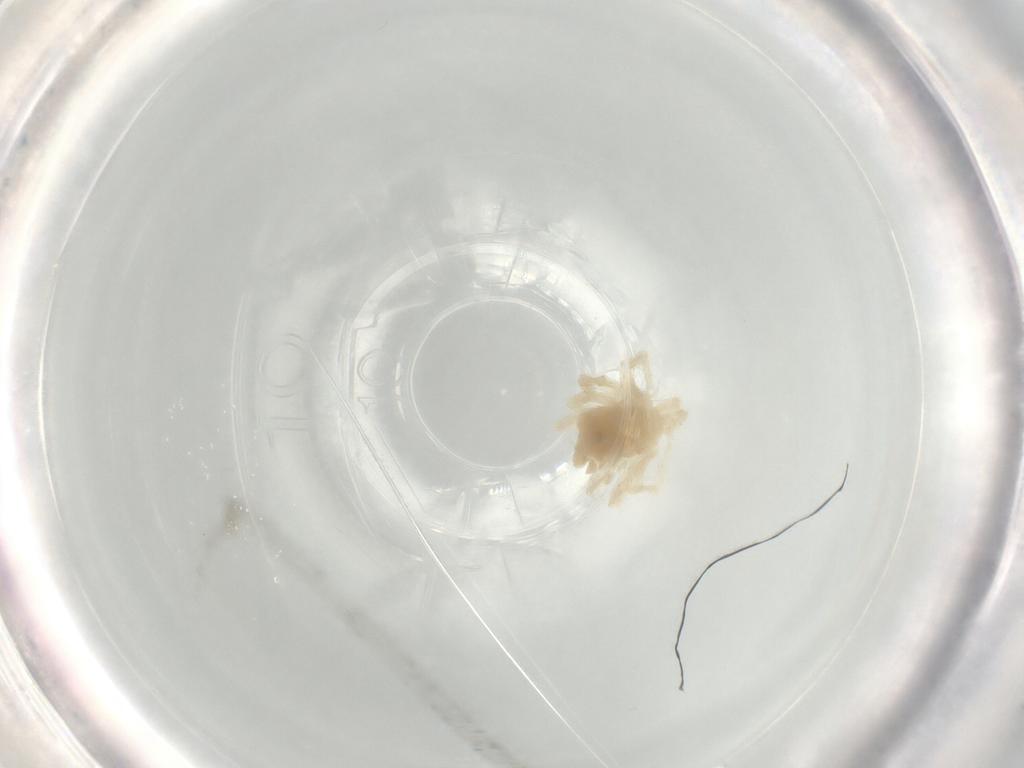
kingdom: Animalia
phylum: Arthropoda
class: Arachnida
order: Trombidiformes
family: Anystidae
